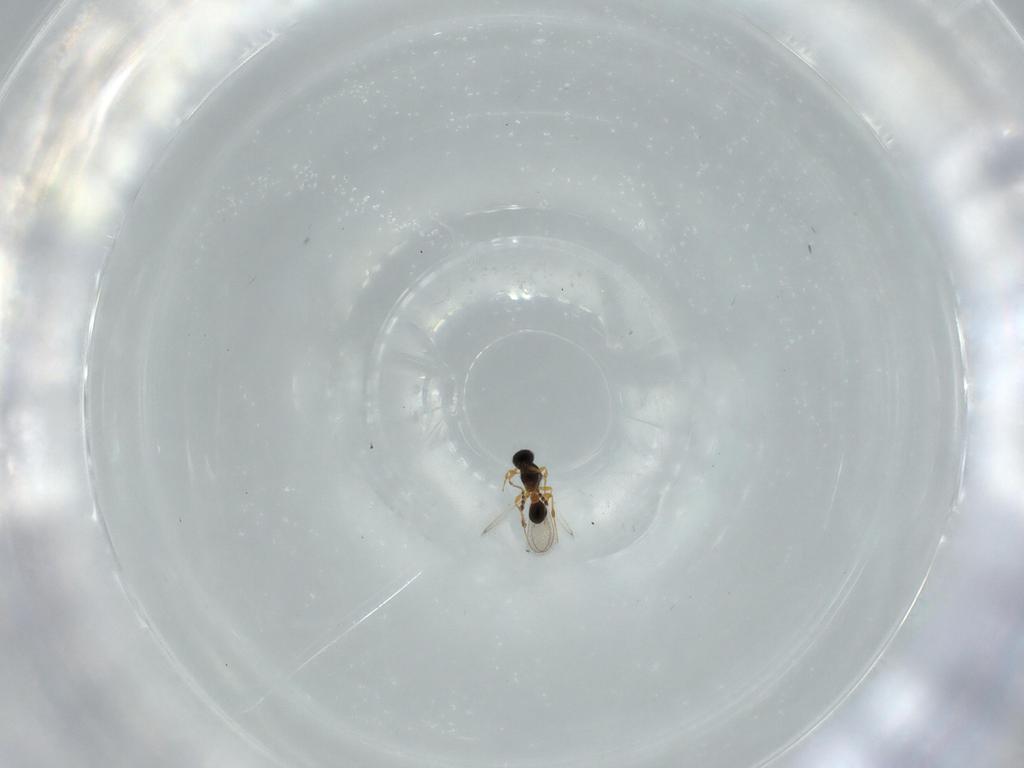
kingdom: Animalia
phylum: Arthropoda
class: Insecta
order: Hymenoptera
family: Platygastridae
